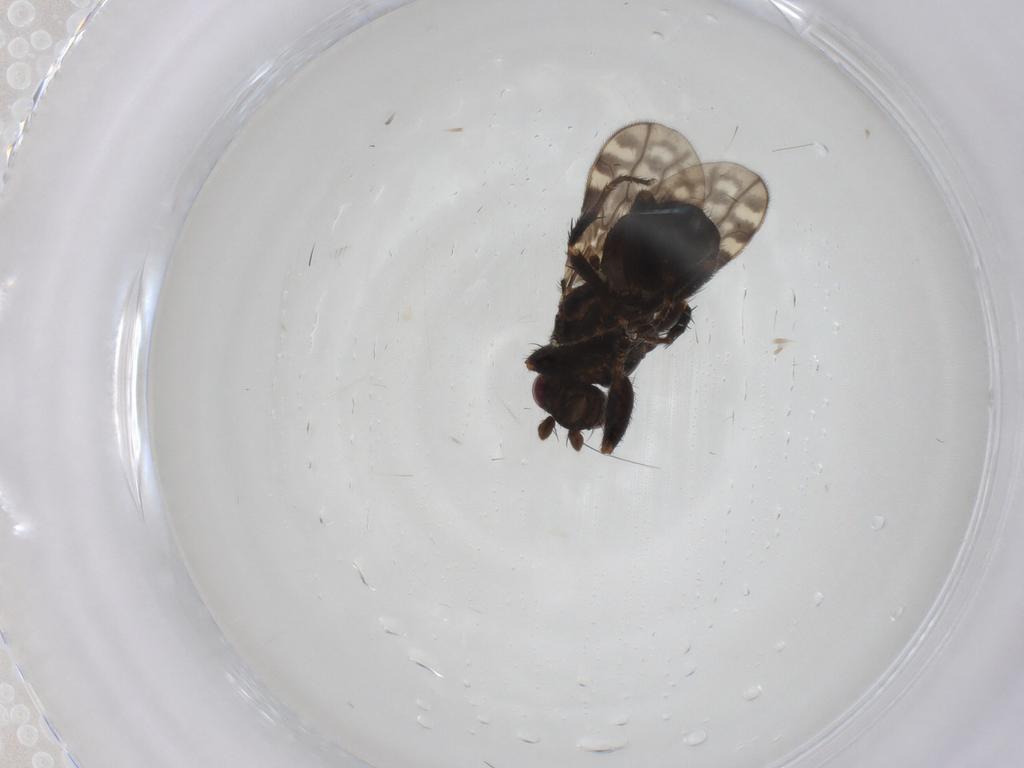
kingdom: Animalia
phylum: Arthropoda
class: Insecta
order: Diptera
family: Sphaeroceridae
